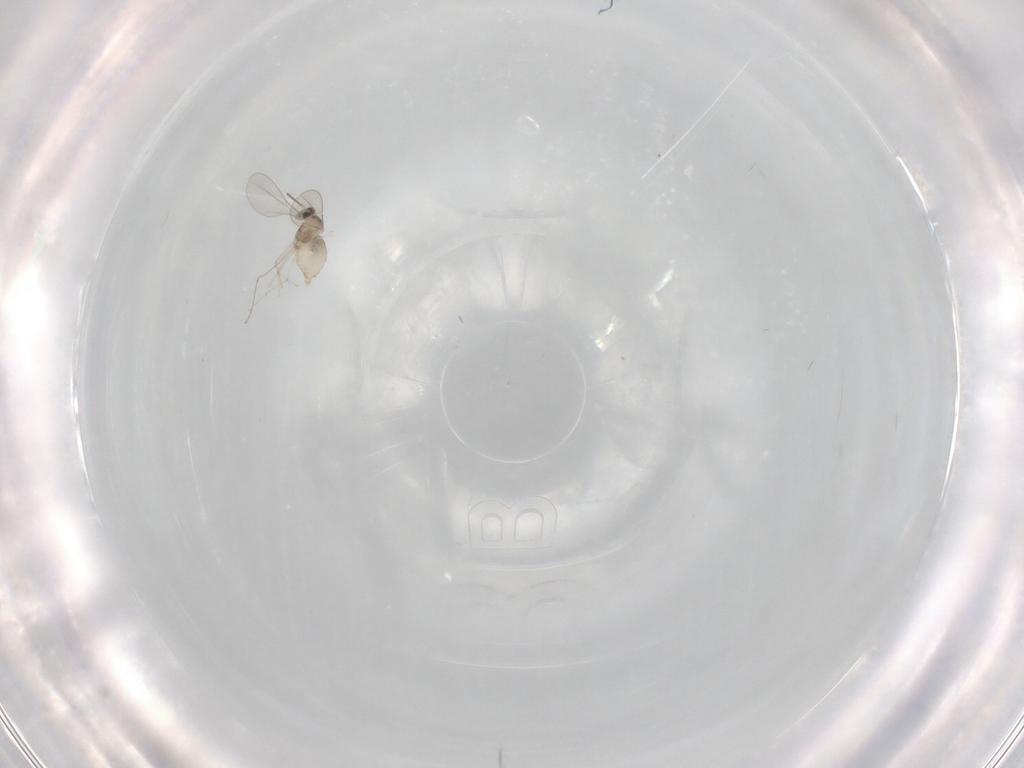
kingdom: Animalia
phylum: Arthropoda
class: Insecta
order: Diptera
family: Cecidomyiidae
